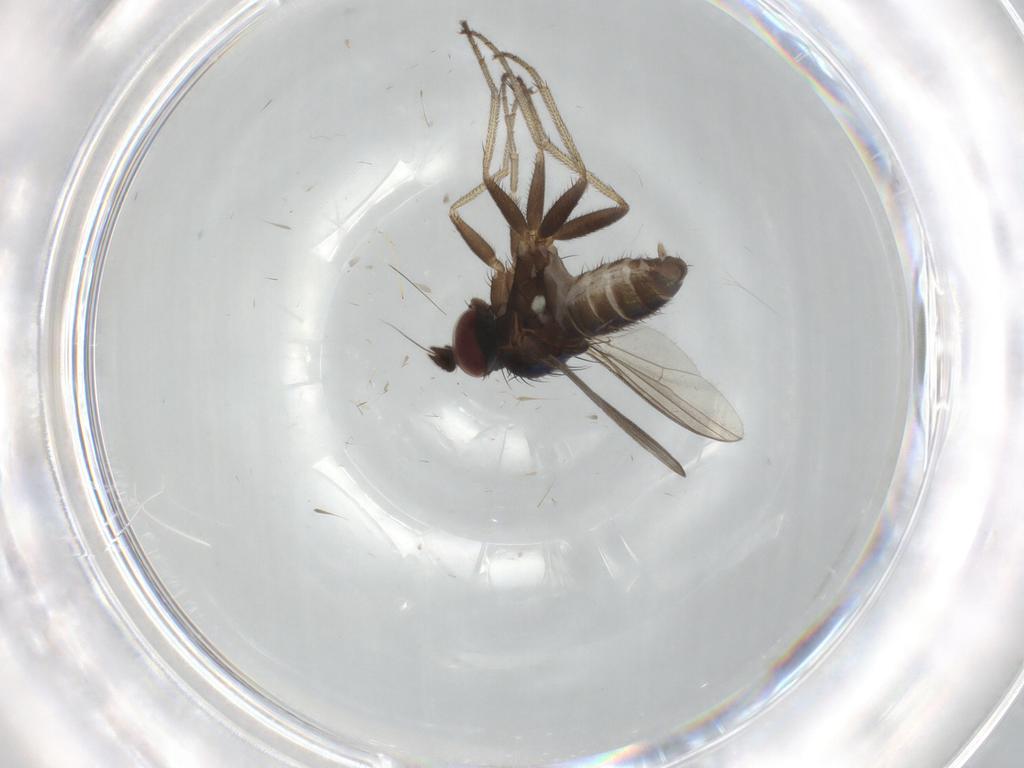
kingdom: Animalia
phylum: Arthropoda
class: Insecta
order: Diptera
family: Dolichopodidae
